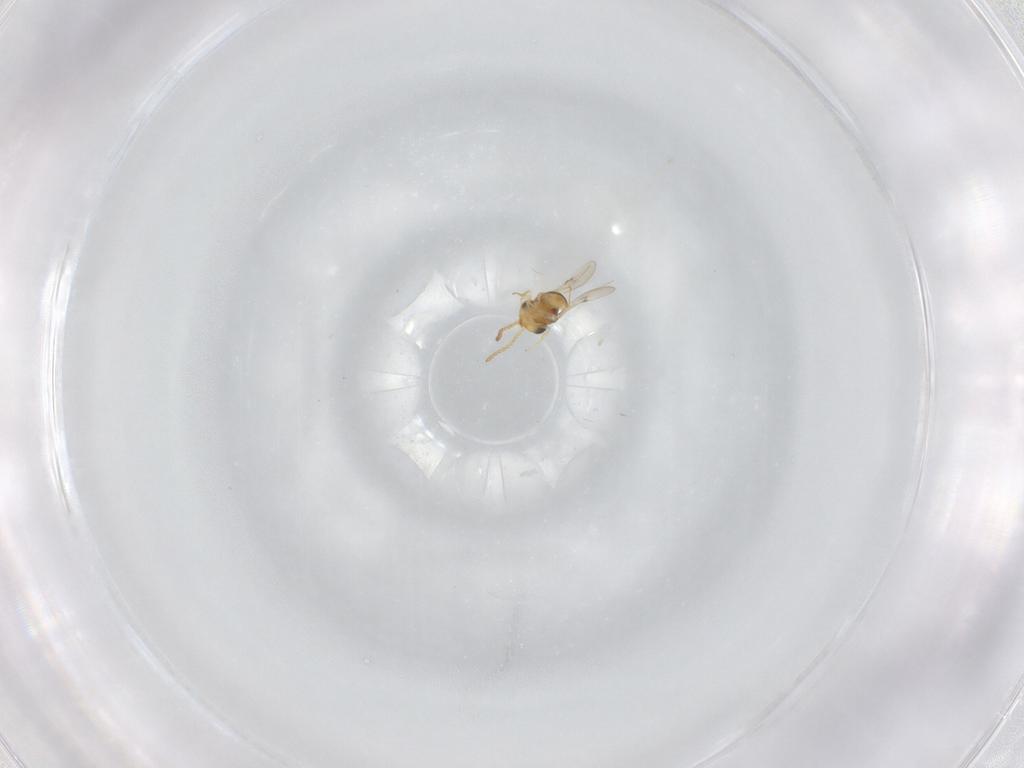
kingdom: Animalia
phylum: Arthropoda
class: Insecta
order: Hymenoptera
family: Scelionidae
